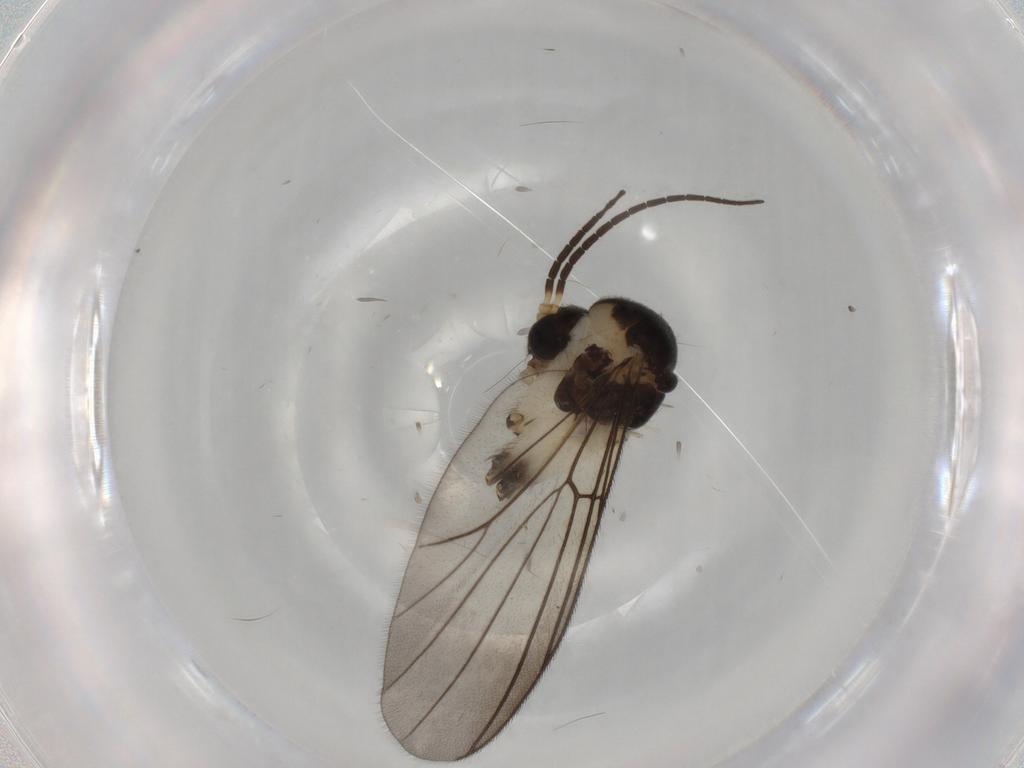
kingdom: Animalia
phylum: Arthropoda
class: Insecta
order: Diptera
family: Drosophilidae
